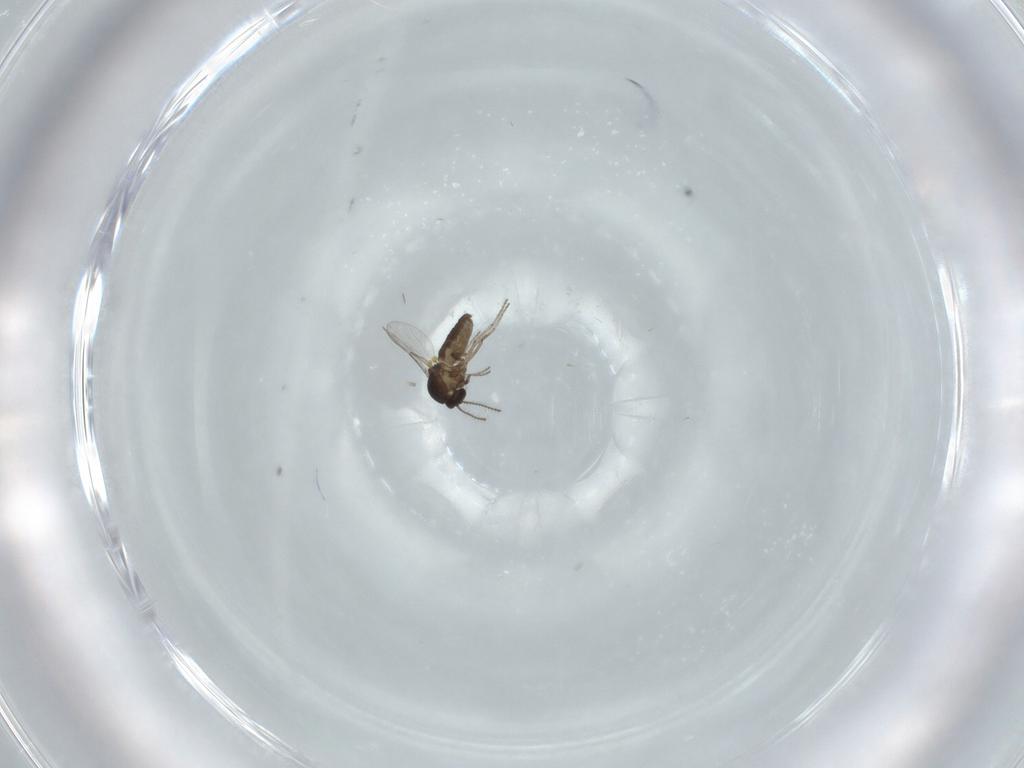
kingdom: Animalia
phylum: Arthropoda
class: Insecta
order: Diptera
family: Ceratopogonidae
